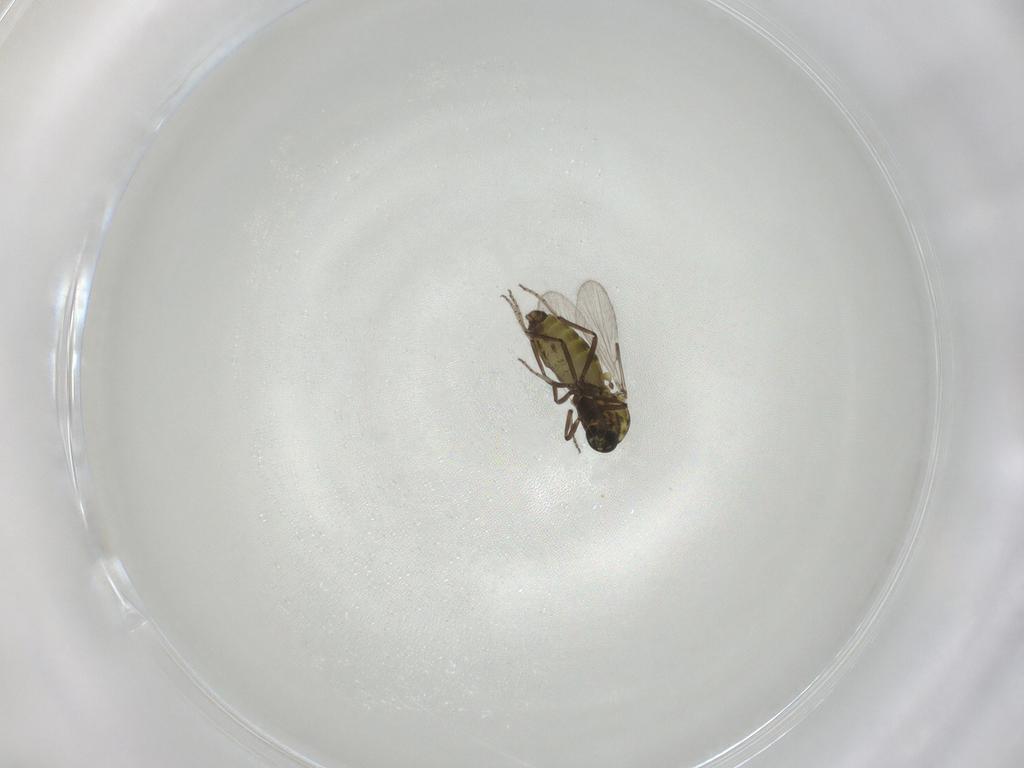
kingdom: Animalia
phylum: Arthropoda
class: Insecta
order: Diptera
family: Ceratopogonidae
